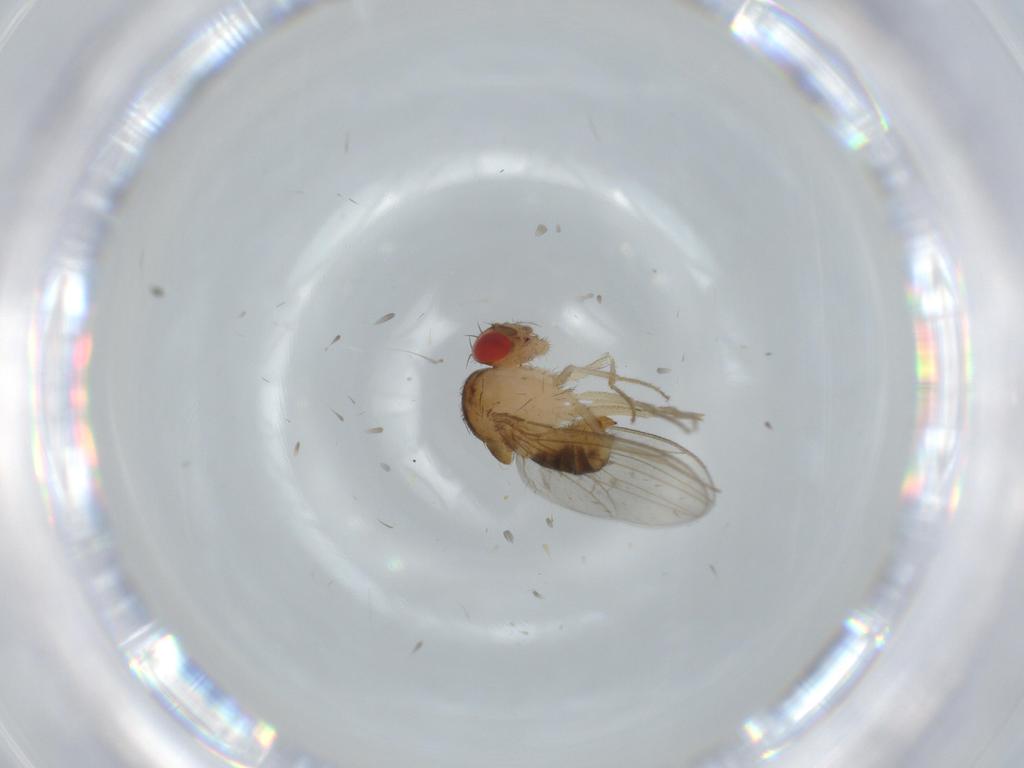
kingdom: Animalia
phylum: Arthropoda
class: Insecta
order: Diptera
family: Drosophilidae
